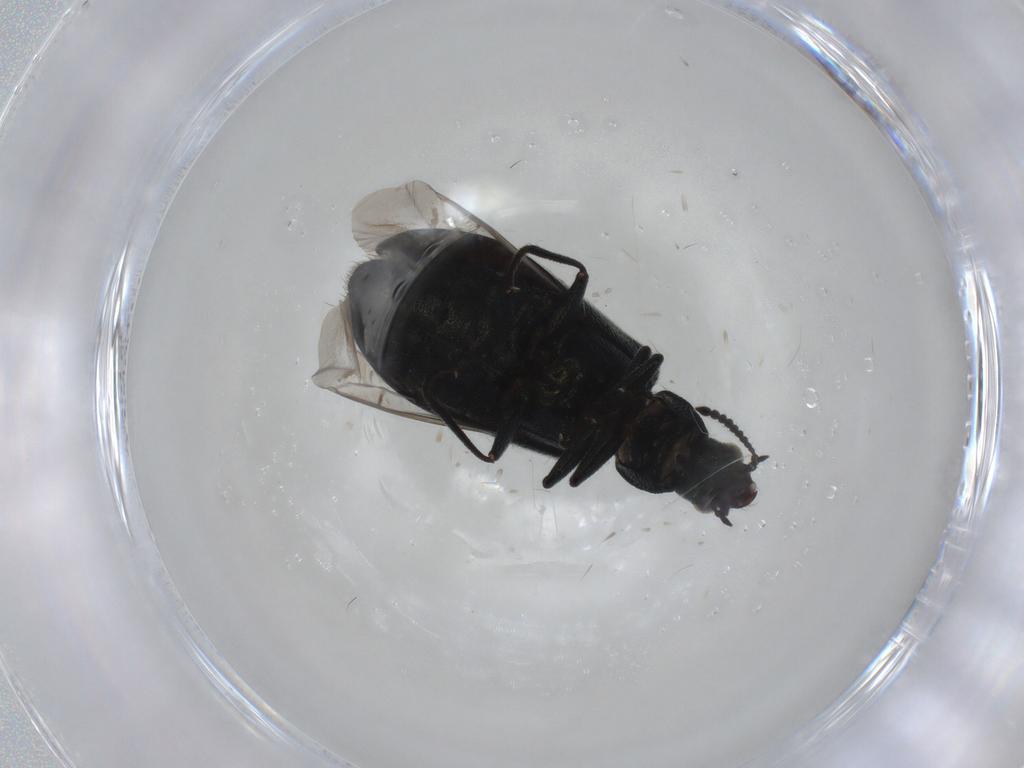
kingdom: Animalia
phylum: Arthropoda
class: Insecta
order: Coleoptera
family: Melyridae
